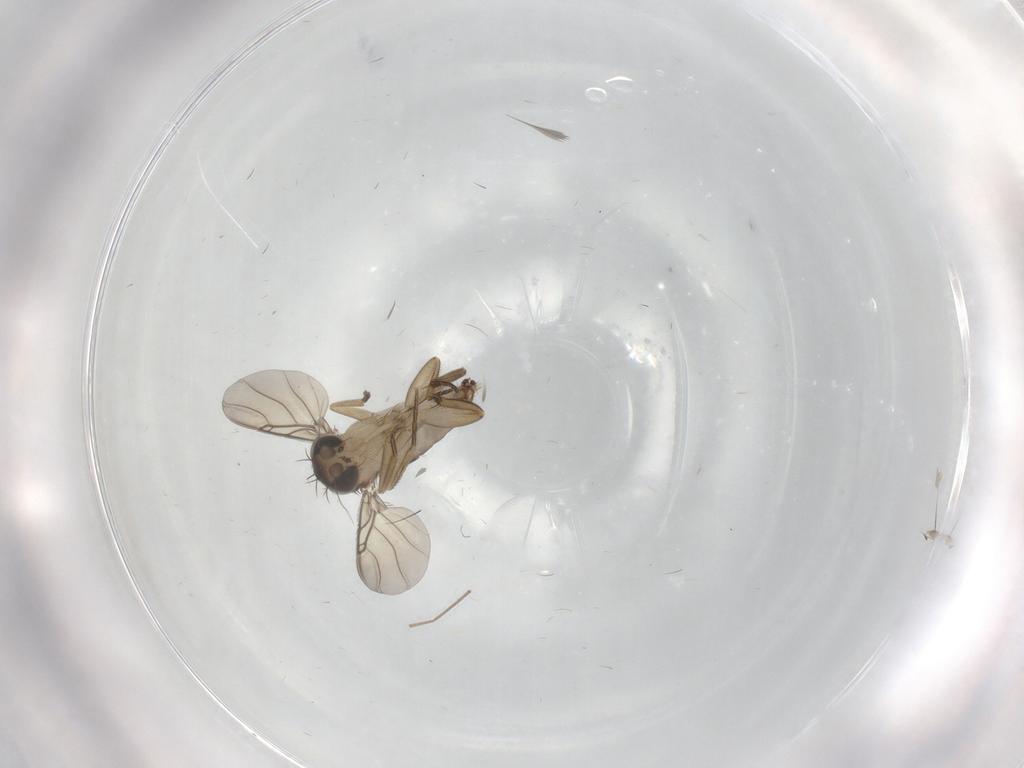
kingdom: Animalia
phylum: Arthropoda
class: Insecta
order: Diptera
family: Phoridae
